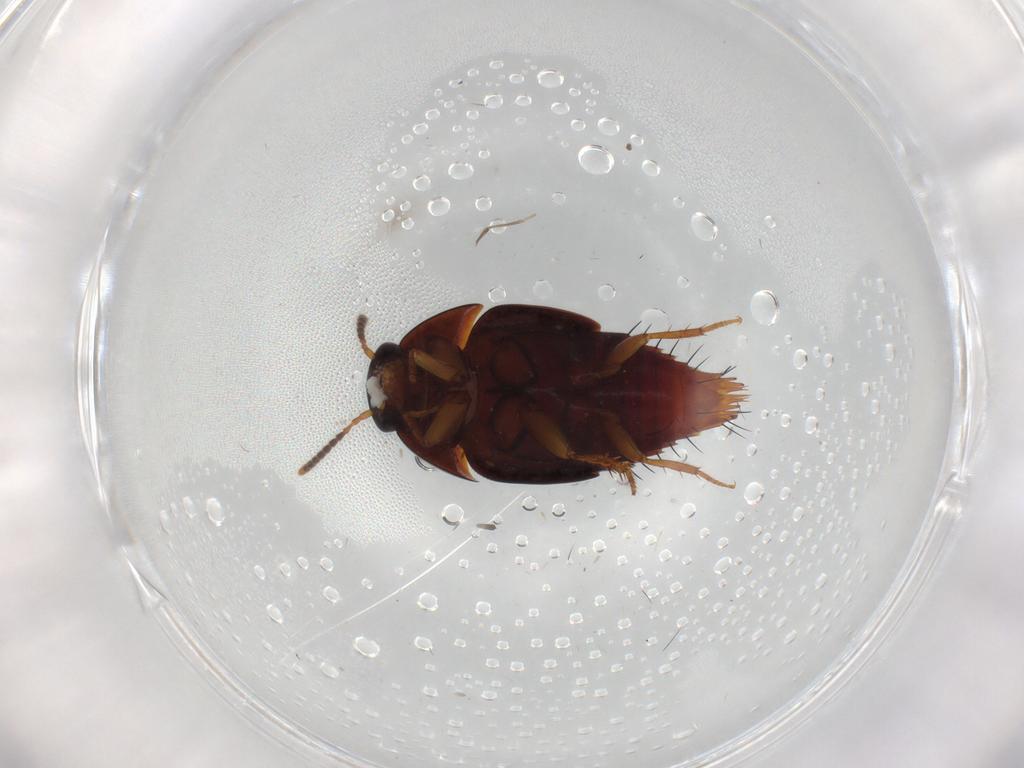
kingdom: Animalia
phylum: Arthropoda
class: Insecta
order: Coleoptera
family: Staphylinidae
